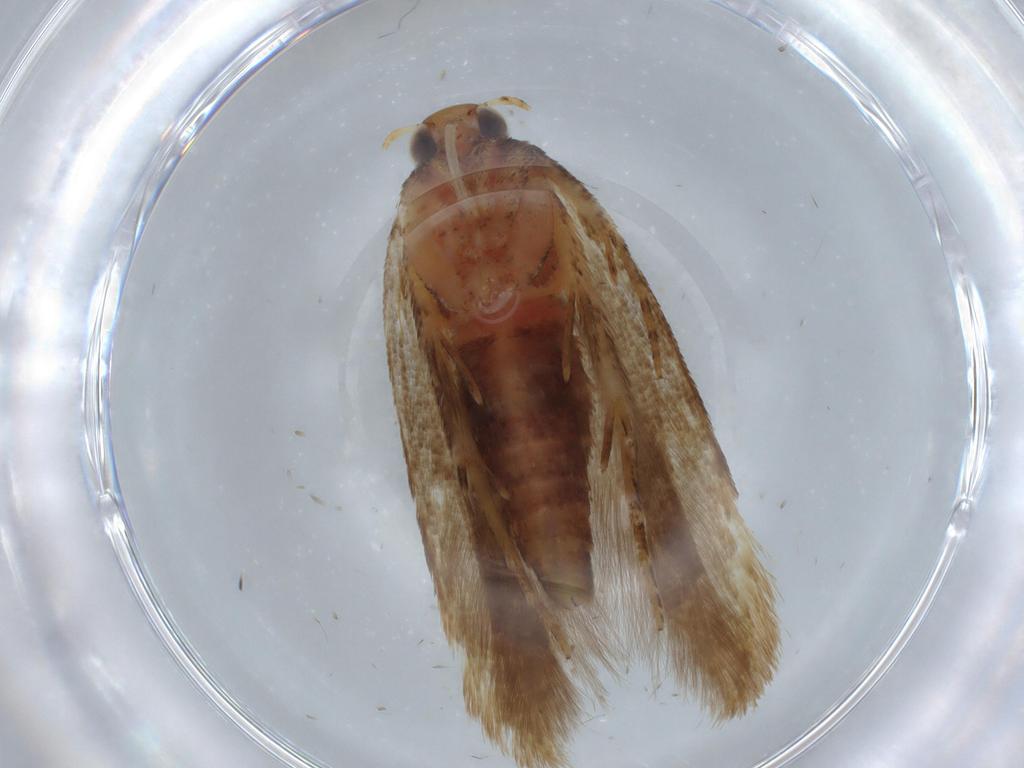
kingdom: Animalia
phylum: Arthropoda
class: Insecta
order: Lepidoptera
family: Gelechiidae
